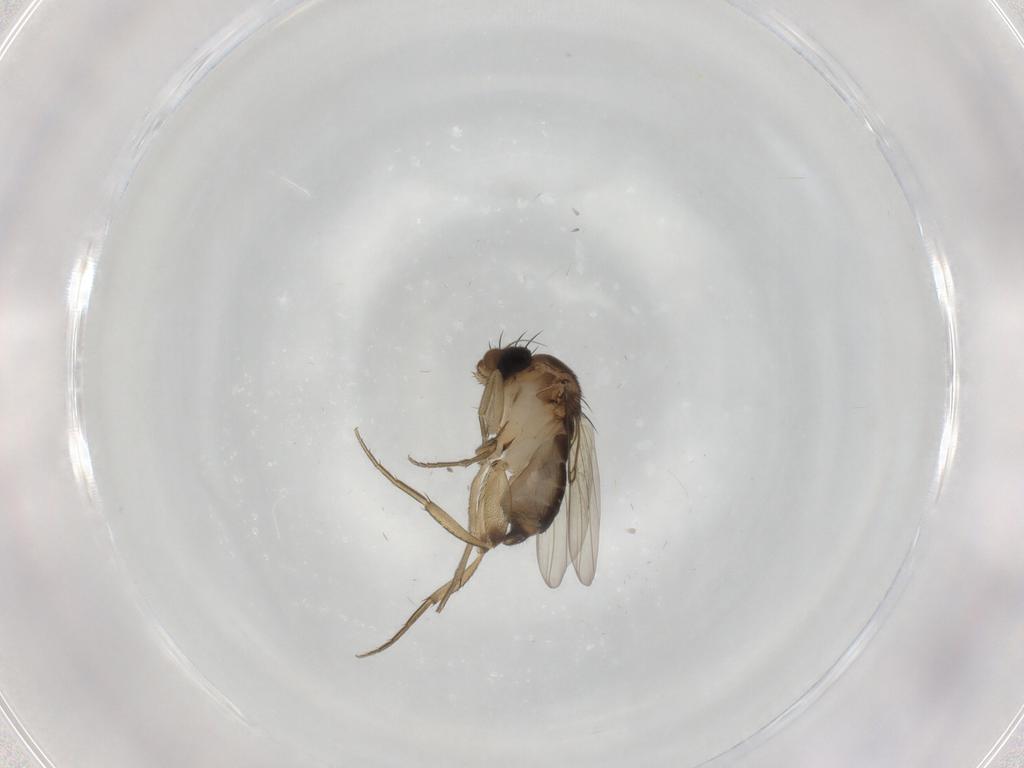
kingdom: Animalia
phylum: Arthropoda
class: Insecta
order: Diptera
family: Phoridae
